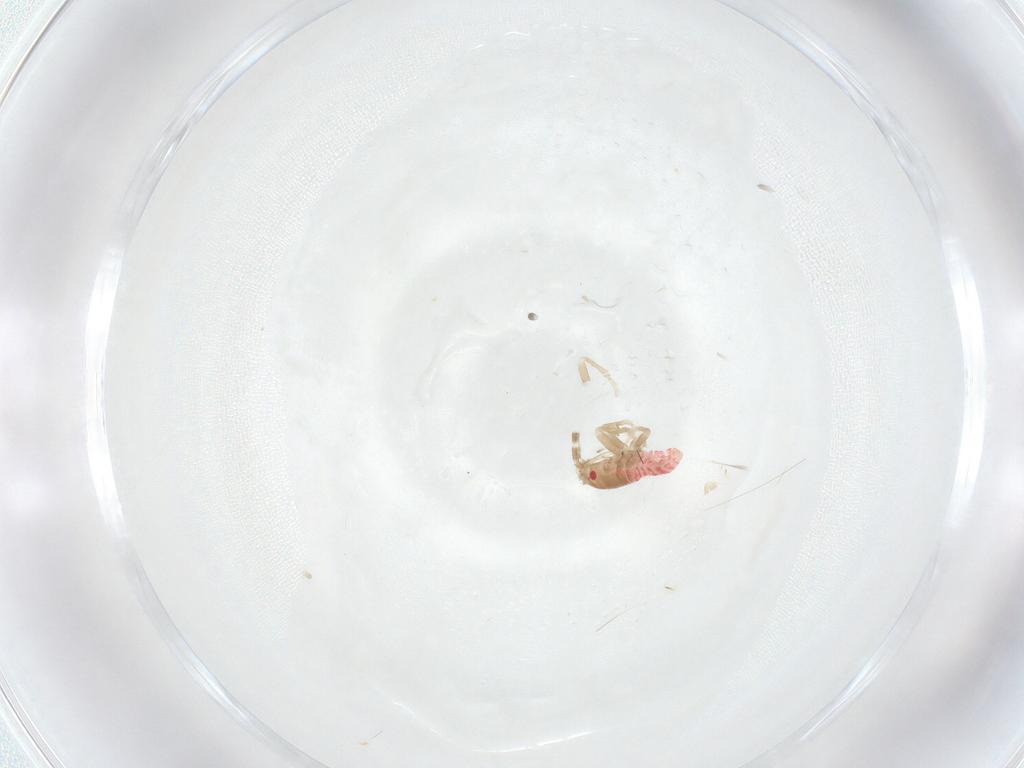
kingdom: Animalia
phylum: Arthropoda
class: Insecta
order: Hemiptera
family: Rhyparochromidae
